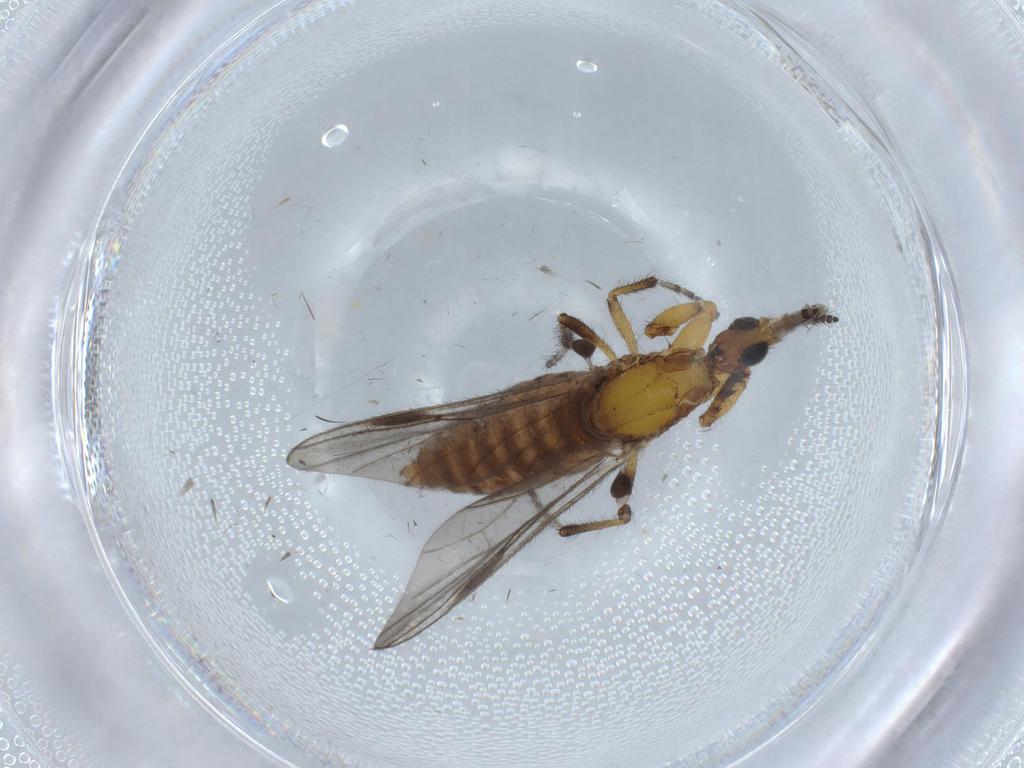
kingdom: Animalia
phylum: Arthropoda
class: Insecta
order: Diptera
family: Bibionidae
